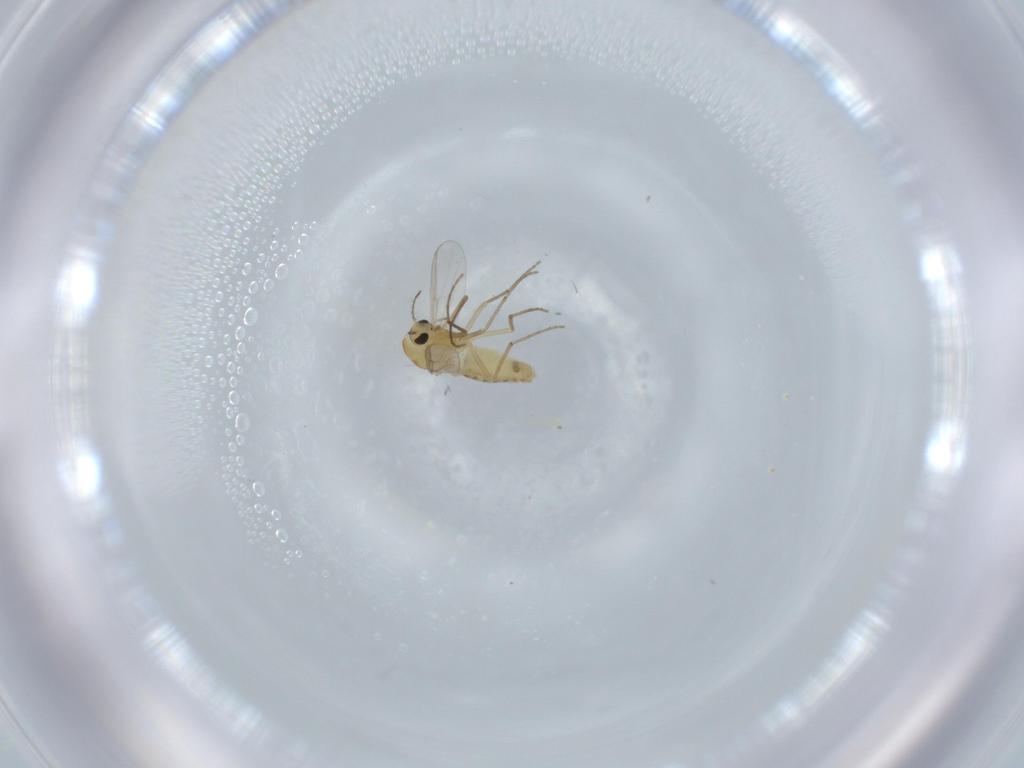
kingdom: Animalia
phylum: Arthropoda
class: Insecta
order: Diptera
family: Chironomidae
